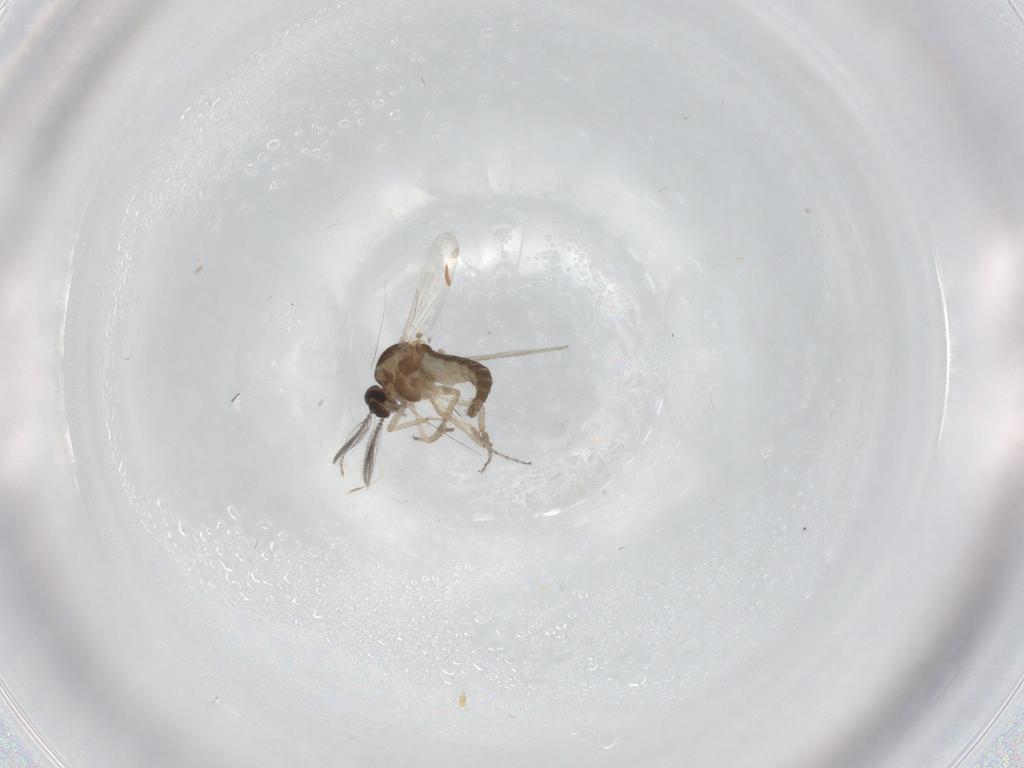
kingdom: Animalia
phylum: Arthropoda
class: Insecta
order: Diptera
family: Ceratopogonidae
